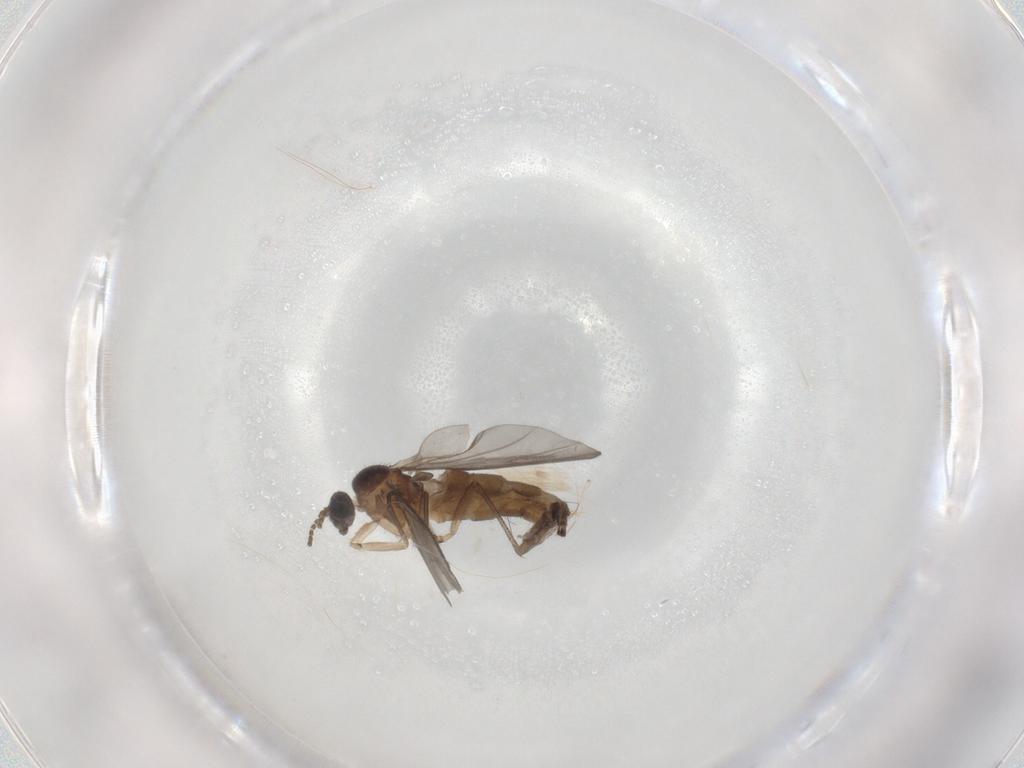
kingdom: Animalia
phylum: Arthropoda
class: Insecta
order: Diptera
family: Sciaridae
